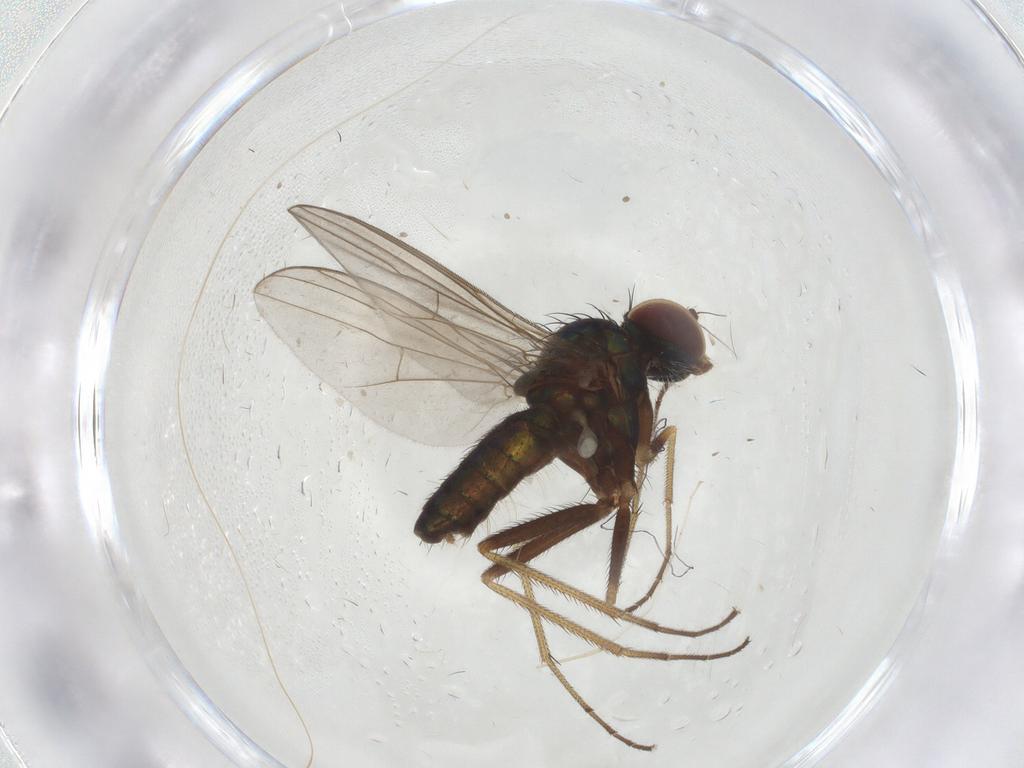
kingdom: Animalia
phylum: Arthropoda
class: Insecta
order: Diptera
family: Dolichopodidae
